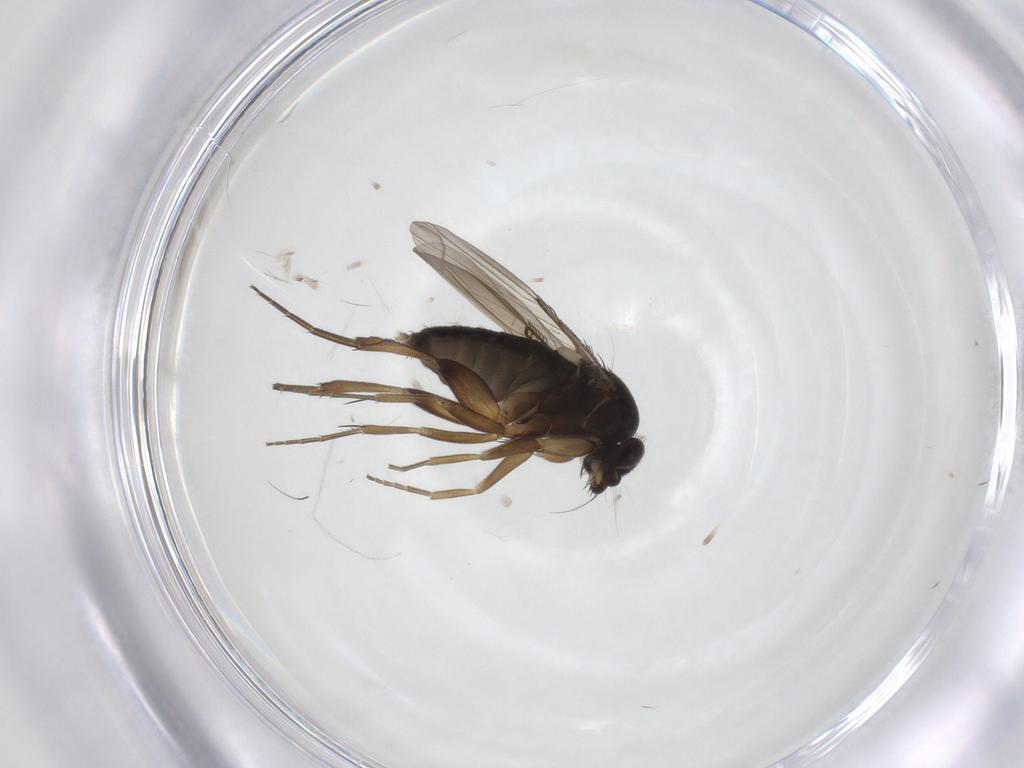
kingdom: Animalia
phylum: Arthropoda
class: Insecta
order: Diptera
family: Phoridae
